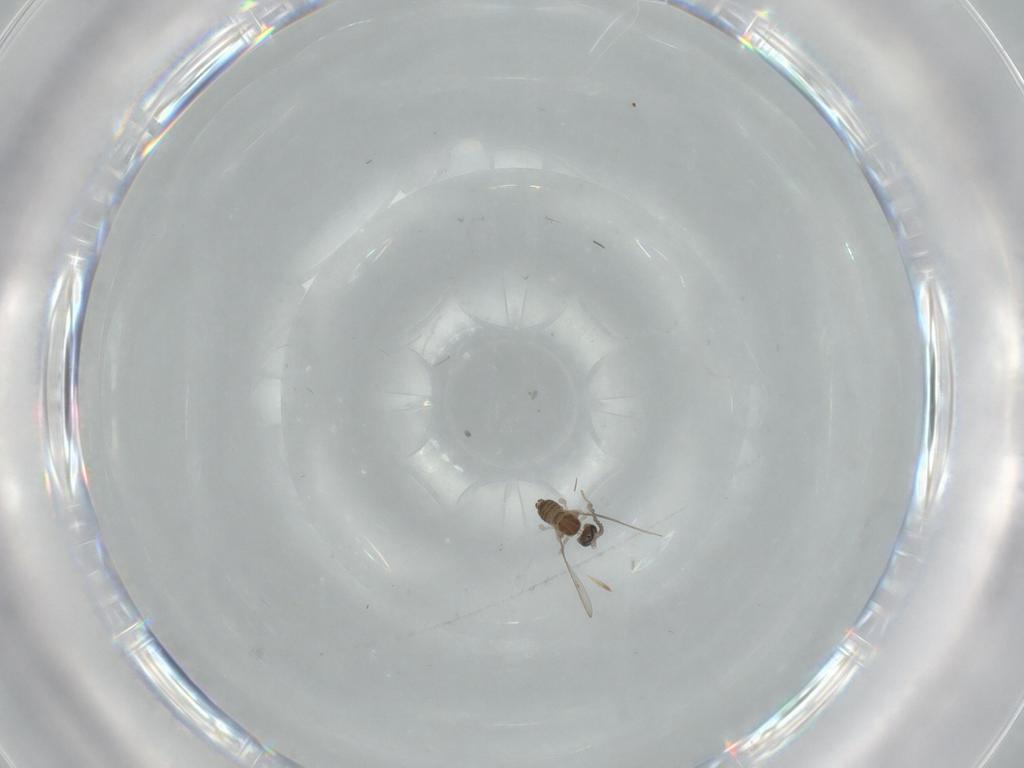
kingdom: Animalia
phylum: Arthropoda
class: Insecta
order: Diptera
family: Cecidomyiidae
